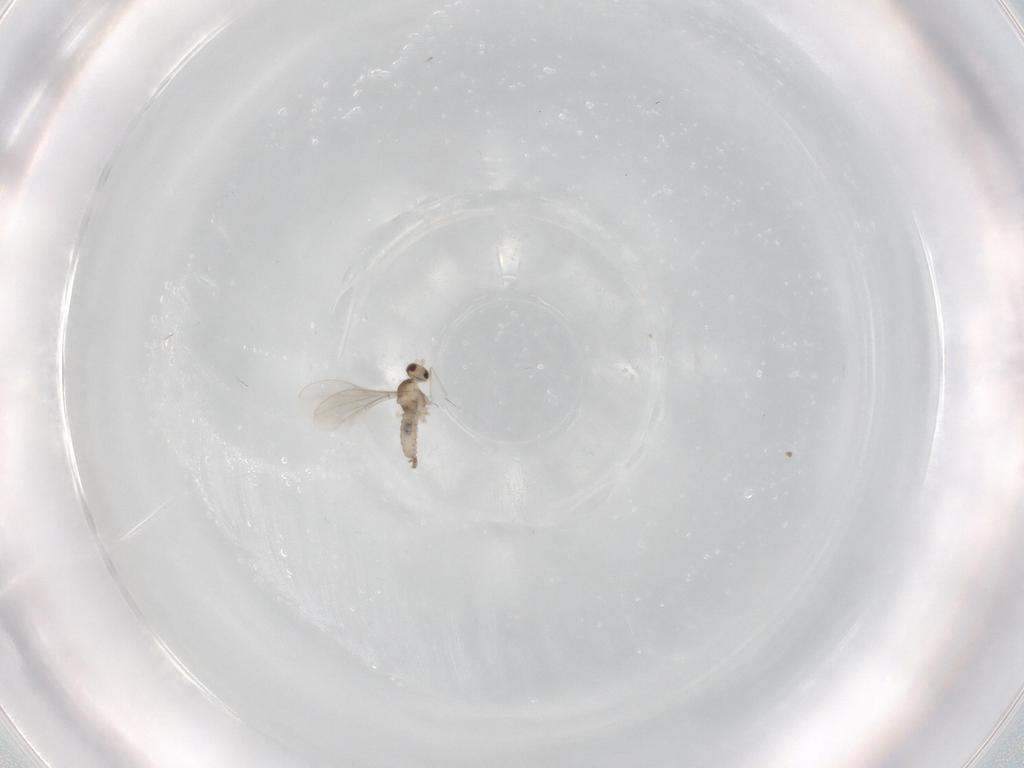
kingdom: Animalia
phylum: Arthropoda
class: Insecta
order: Diptera
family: Cecidomyiidae
